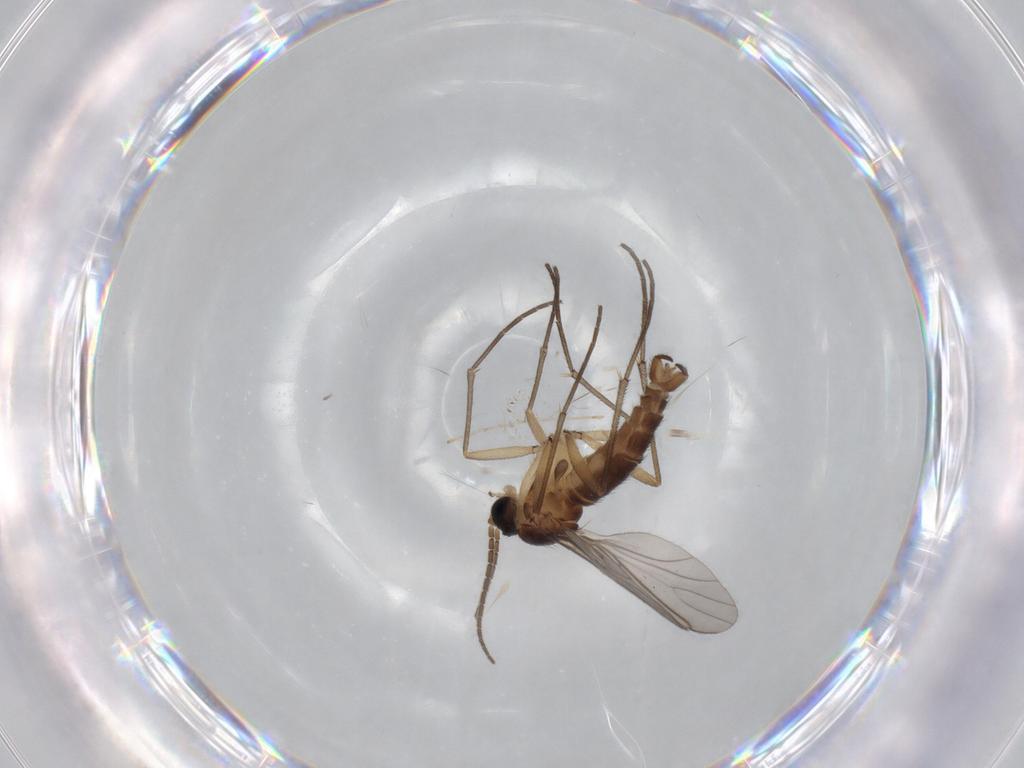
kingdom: Animalia
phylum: Arthropoda
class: Insecta
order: Diptera
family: Sciaridae
